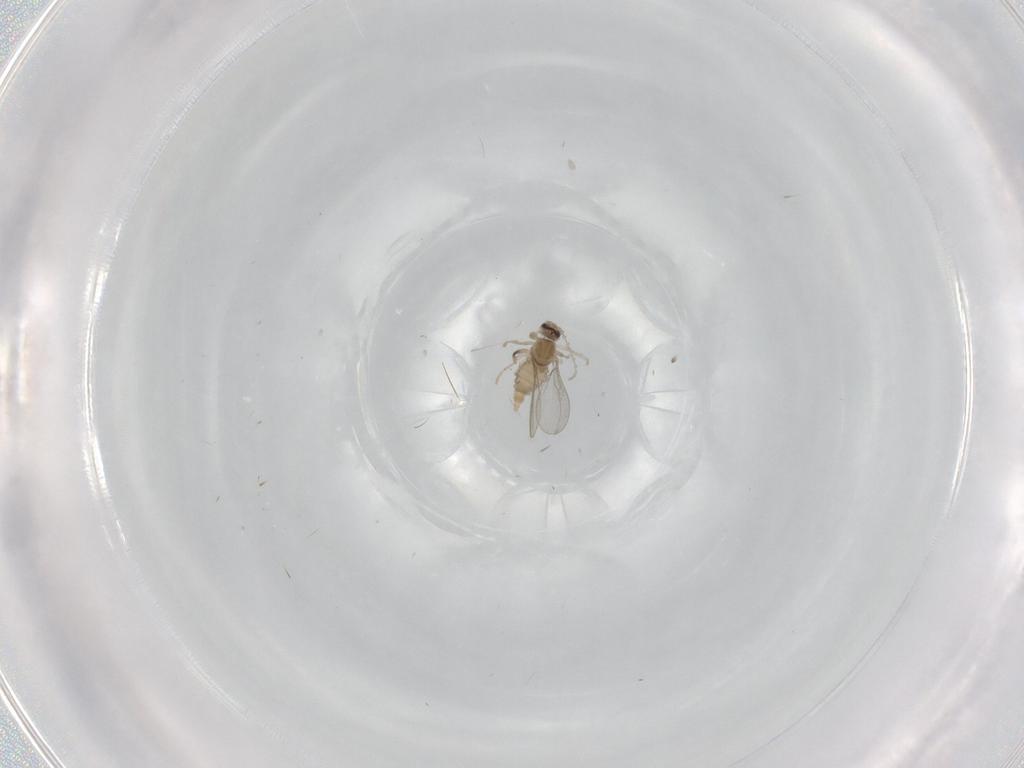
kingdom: Animalia
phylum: Arthropoda
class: Insecta
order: Diptera
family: Cecidomyiidae
